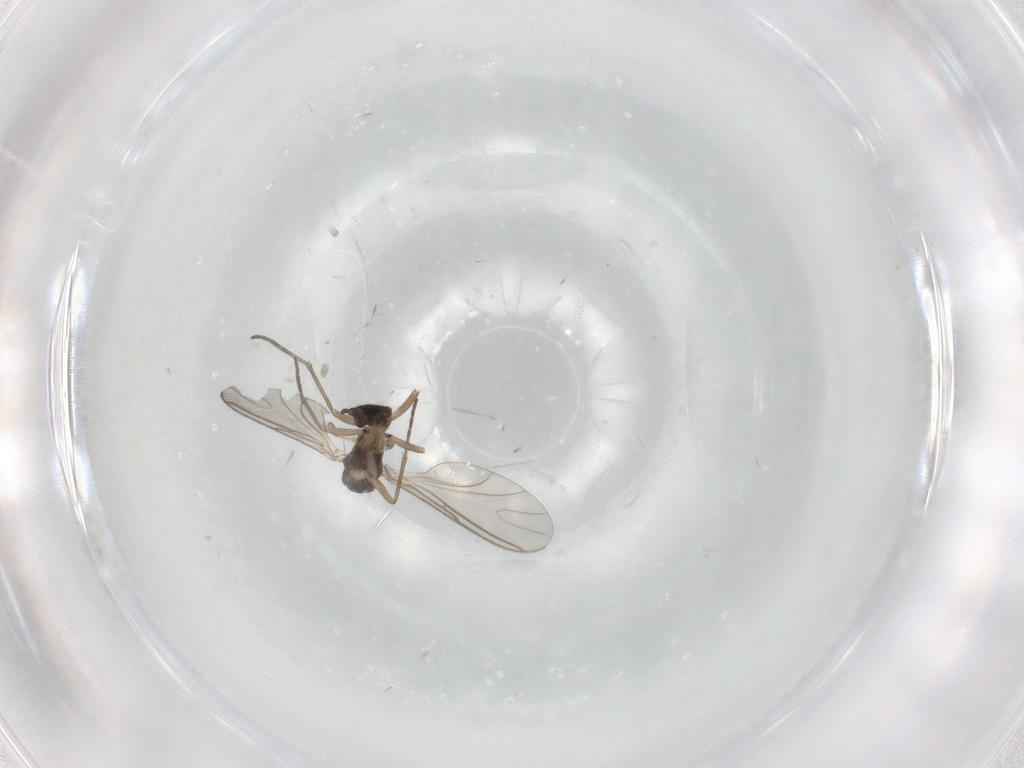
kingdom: Animalia
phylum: Arthropoda
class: Insecta
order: Diptera
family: Sciaridae
